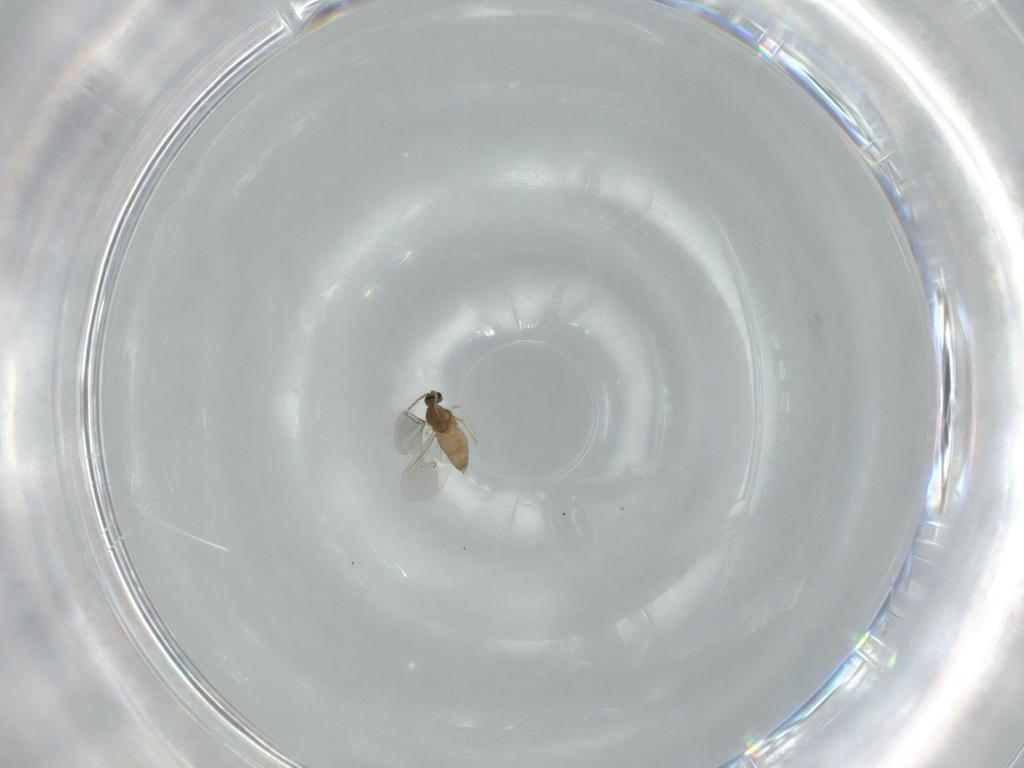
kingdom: Animalia
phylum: Arthropoda
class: Insecta
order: Diptera
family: Cecidomyiidae
